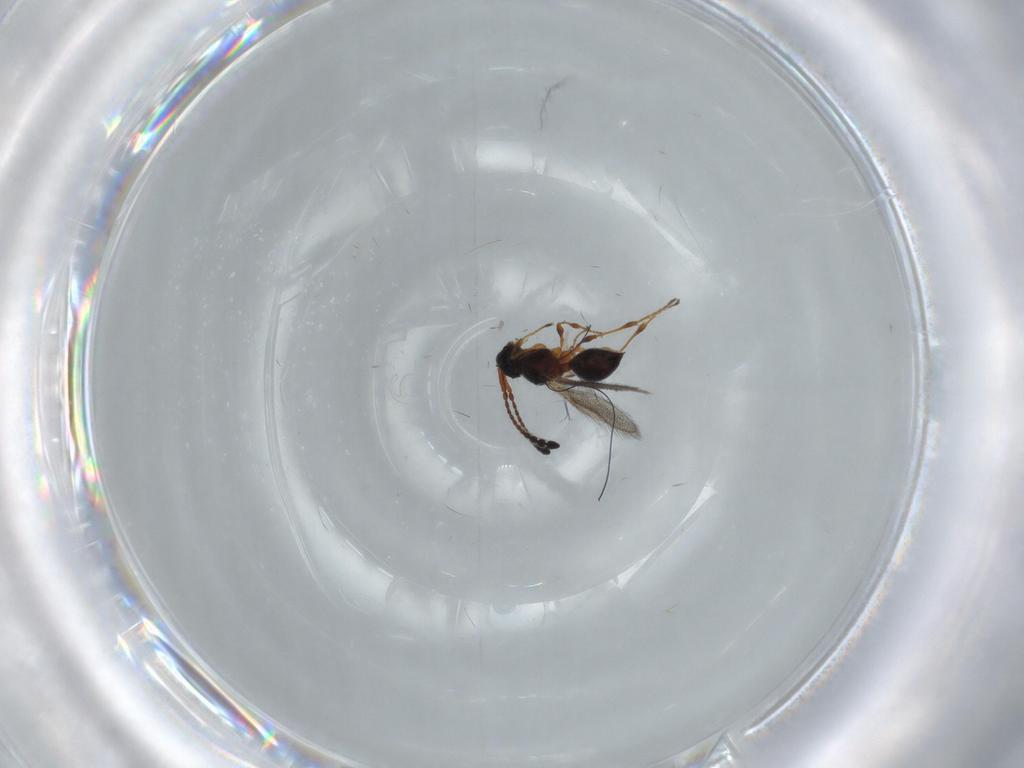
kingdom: Animalia
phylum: Arthropoda
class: Insecta
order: Hymenoptera
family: Diapriidae
